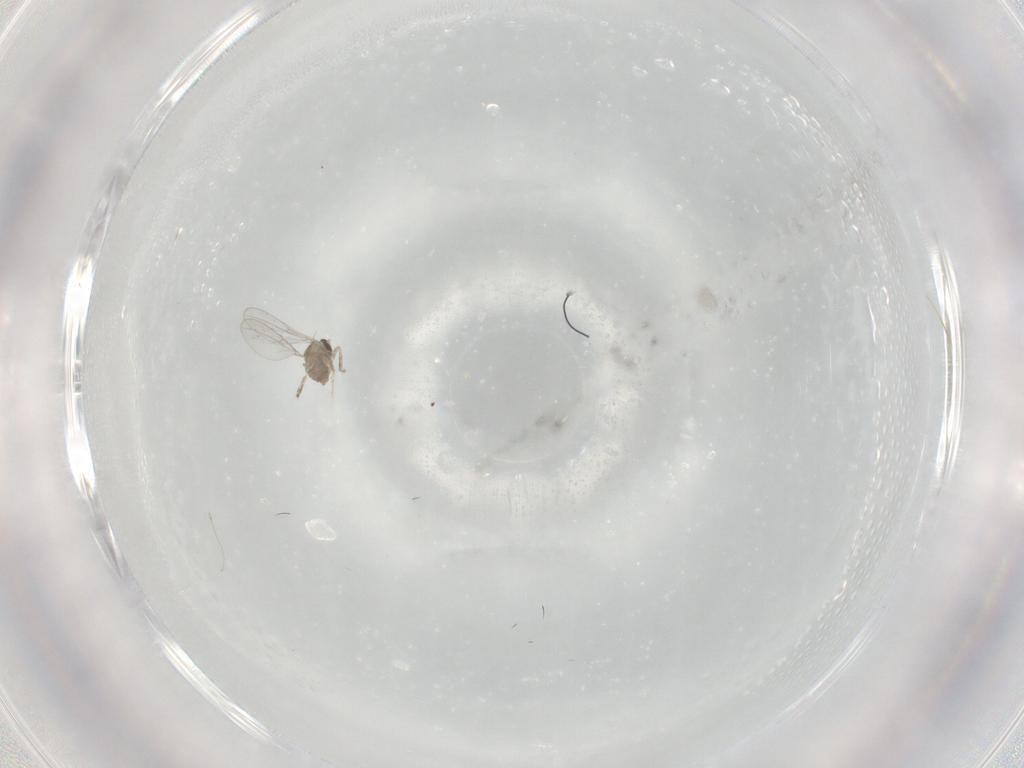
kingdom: Animalia
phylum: Arthropoda
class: Insecta
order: Diptera
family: Cecidomyiidae
